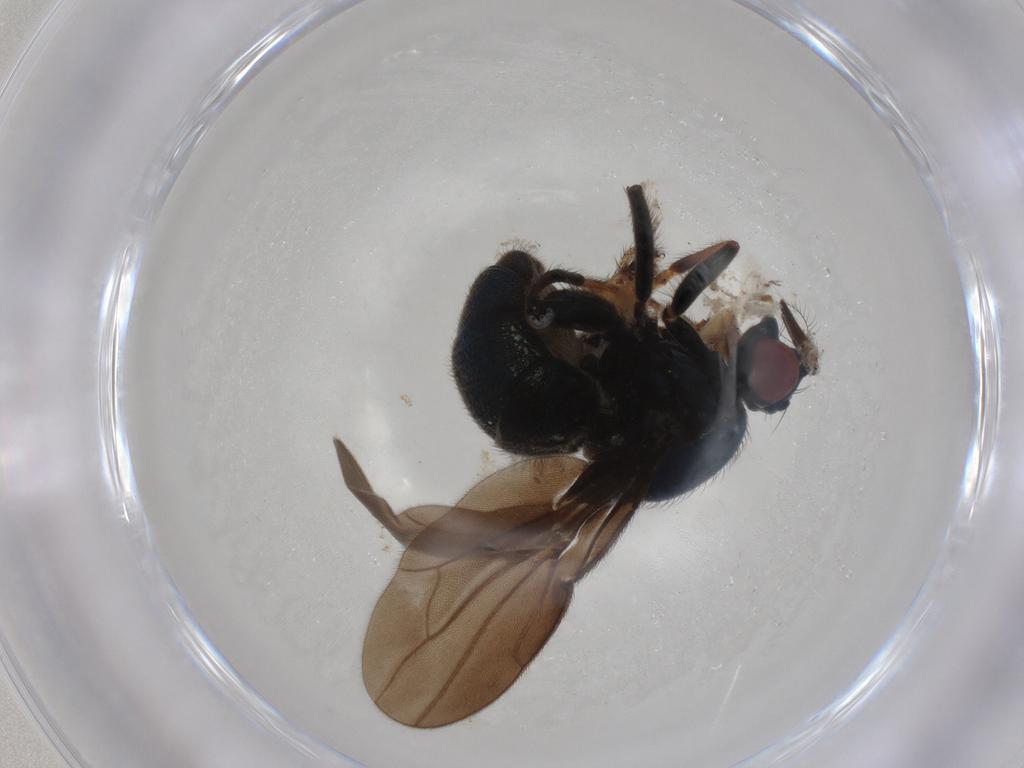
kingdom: Animalia
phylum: Arthropoda
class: Insecta
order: Diptera
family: Ephydridae
